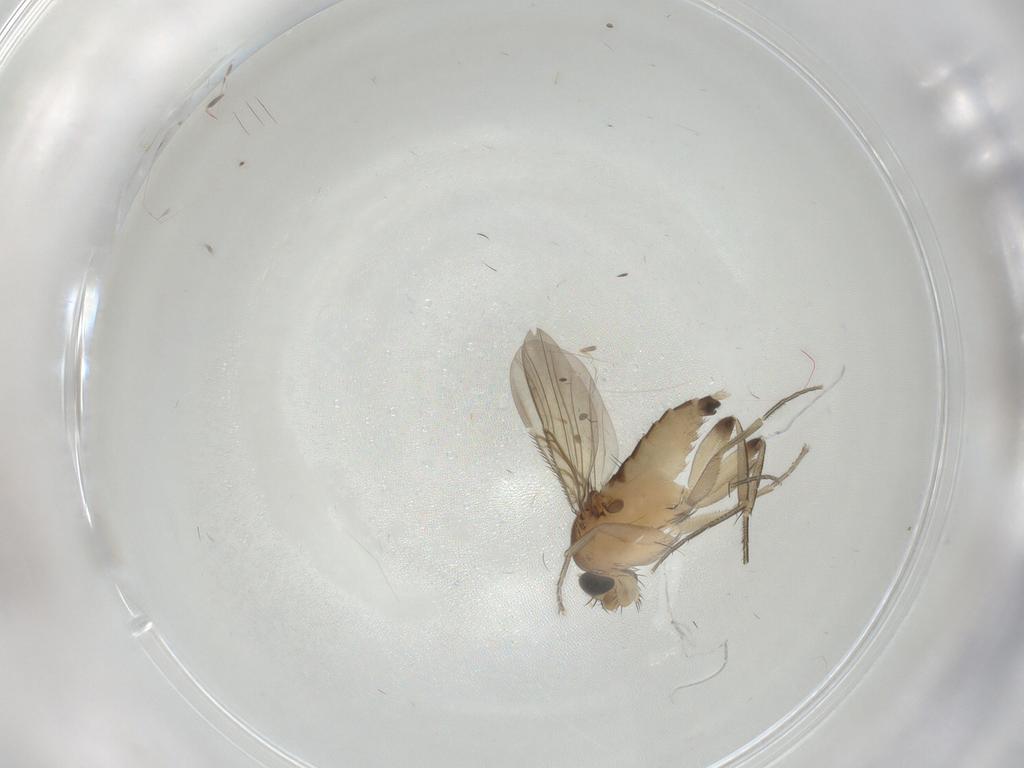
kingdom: Animalia
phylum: Arthropoda
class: Insecta
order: Diptera
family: Phoridae
